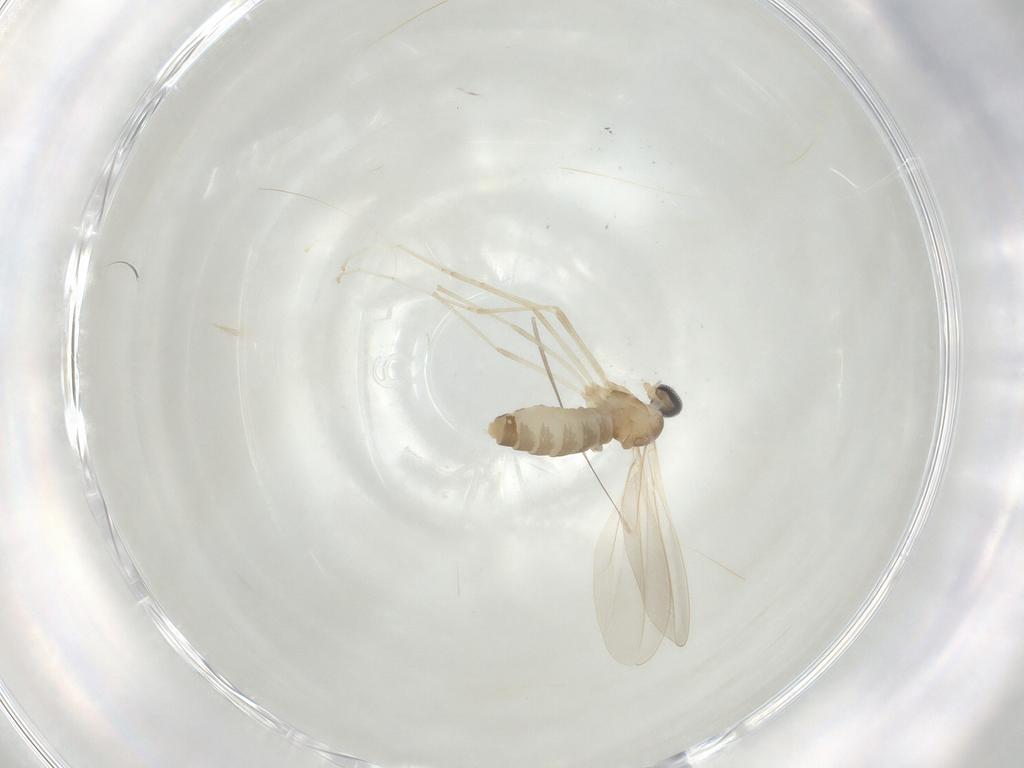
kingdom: Animalia
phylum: Arthropoda
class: Insecta
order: Diptera
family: Cecidomyiidae
